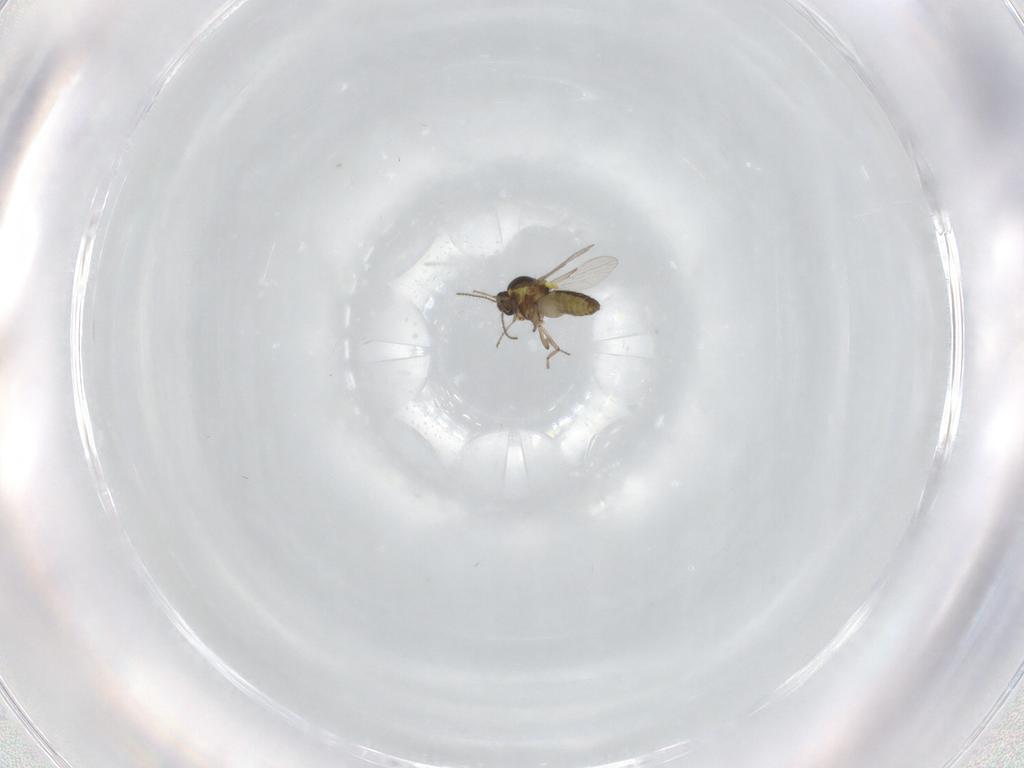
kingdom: Animalia
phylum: Arthropoda
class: Insecta
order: Diptera
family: Ceratopogonidae
